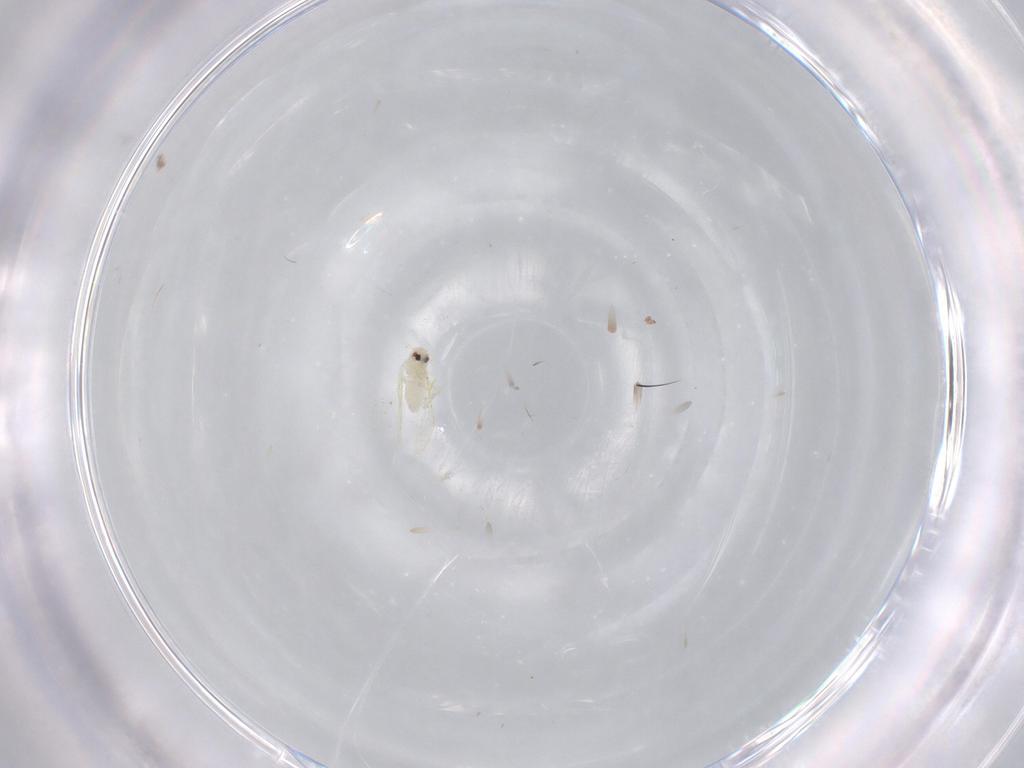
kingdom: Animalia
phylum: Arthropoda
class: Insecta
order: Hemiptera
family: Aleyrodidae
